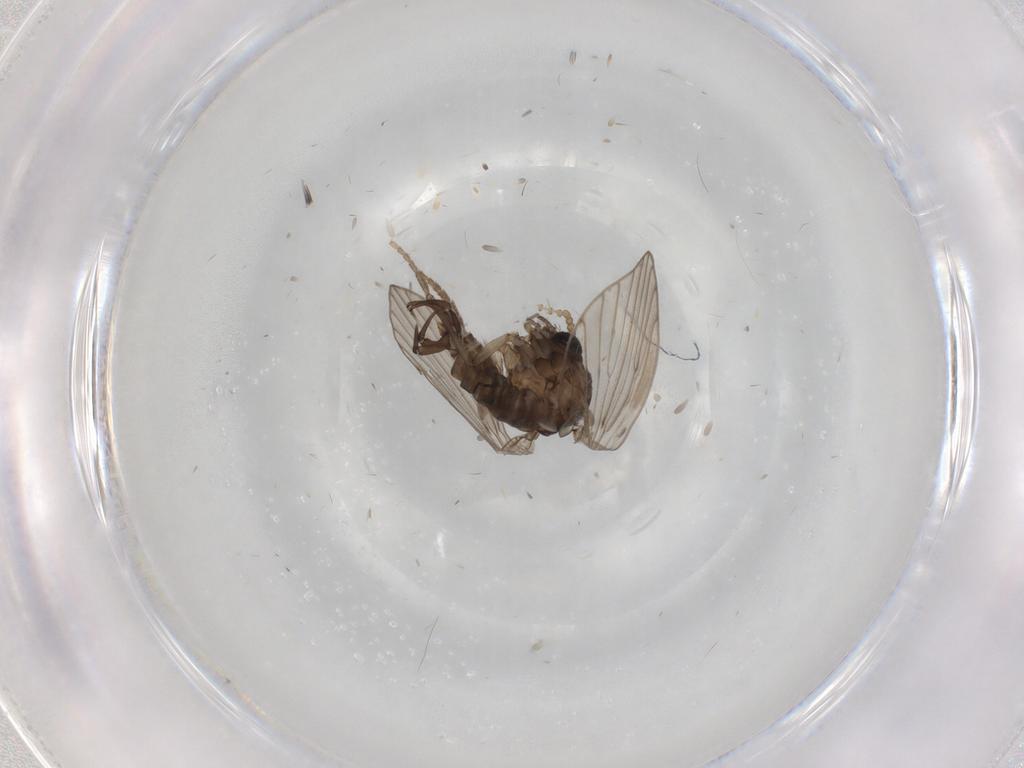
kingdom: Animalia
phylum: Arthropoda
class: Insecta
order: Diptera
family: Psychodidae
